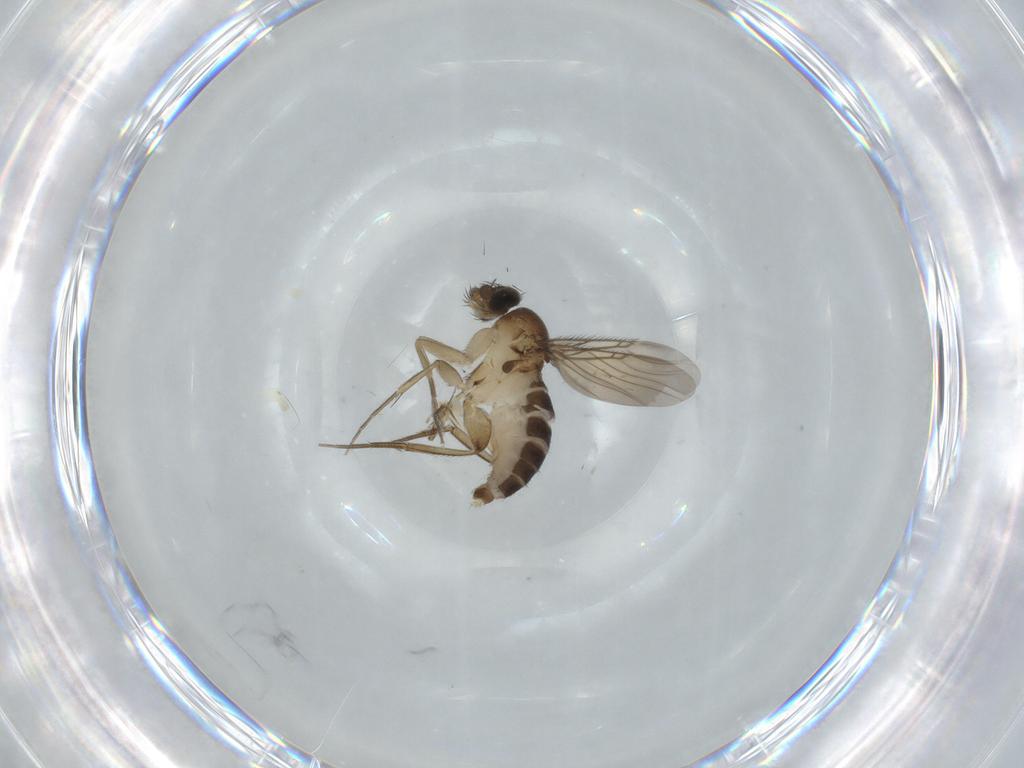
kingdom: Animalia
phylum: Arthropoda
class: Insecta
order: Diptera
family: Phoridae
